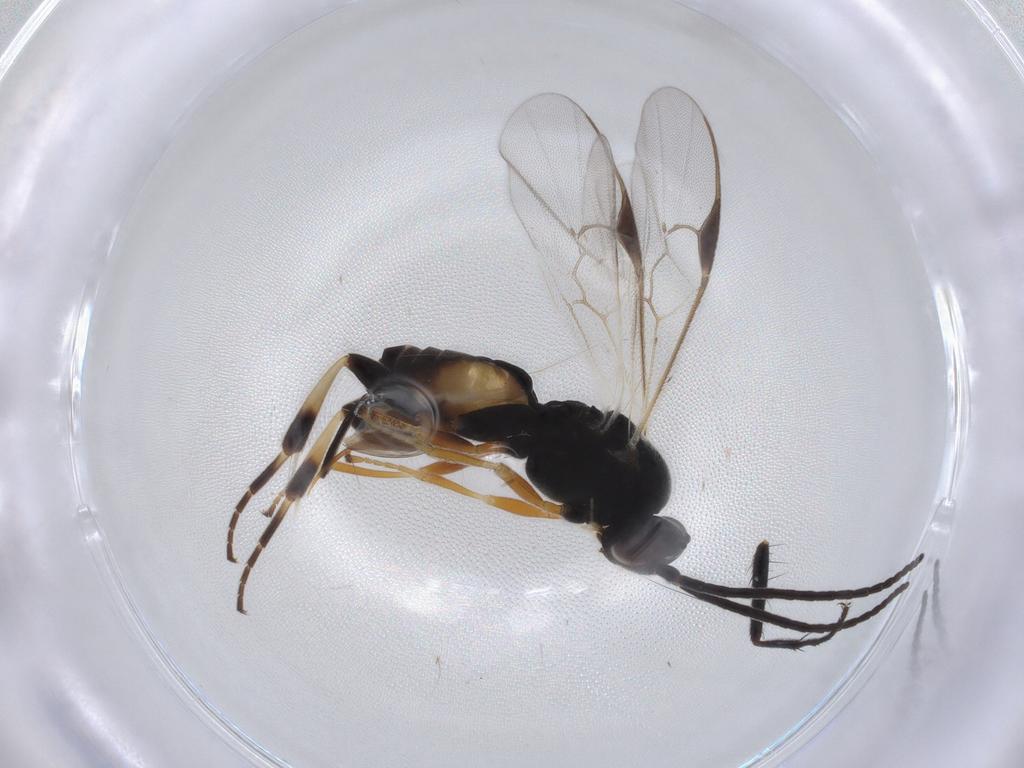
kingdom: Animalia
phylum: Arthropoda
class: Insecta
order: Hymenoptera
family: Braconidae
